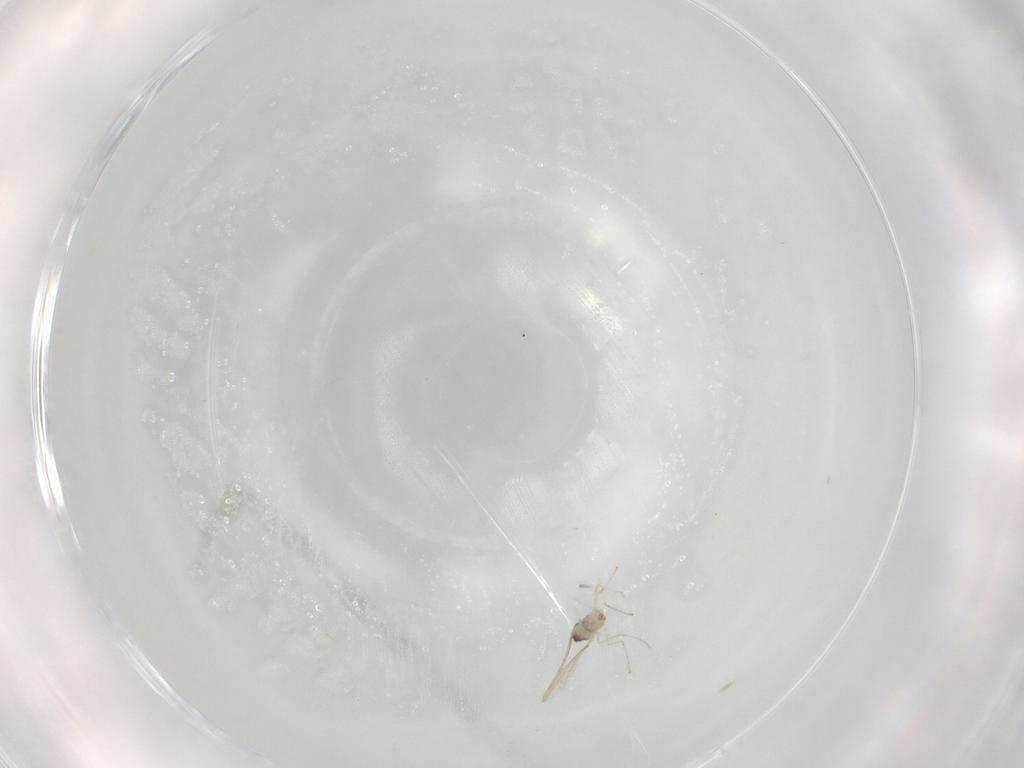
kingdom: Animalia
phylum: Arthropoda
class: Insecta
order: Diptera
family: Cecidomyiidae
